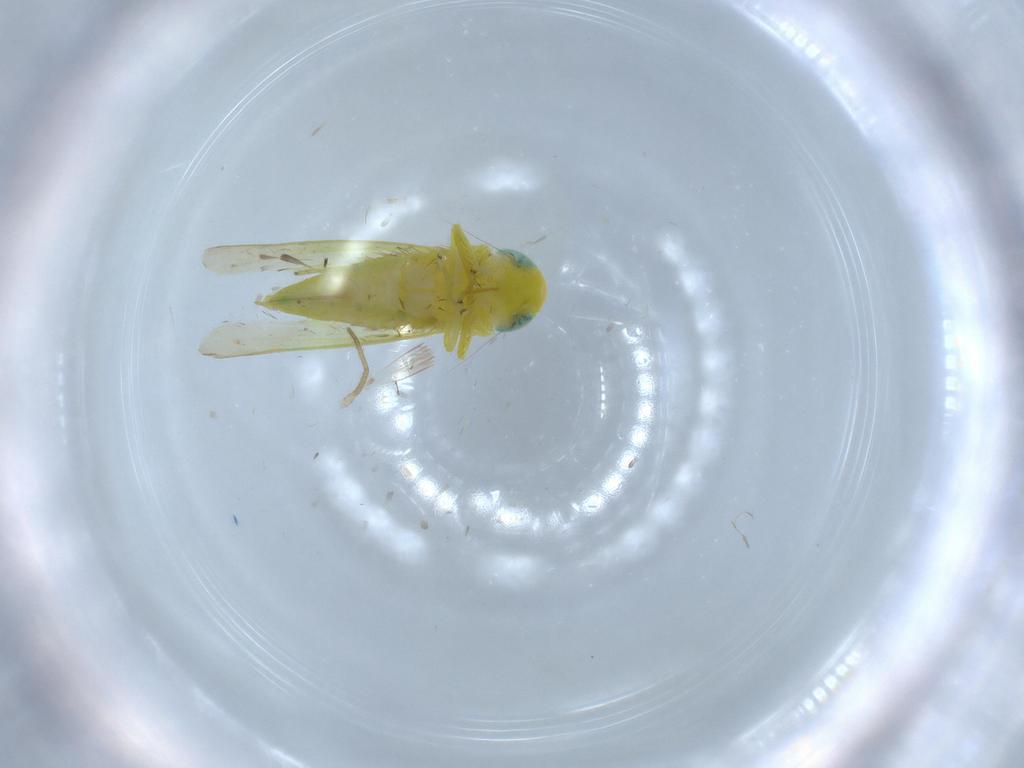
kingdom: Animalia
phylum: Arthropoda
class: Insecta
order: Hemiptera
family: Cicadellidae
